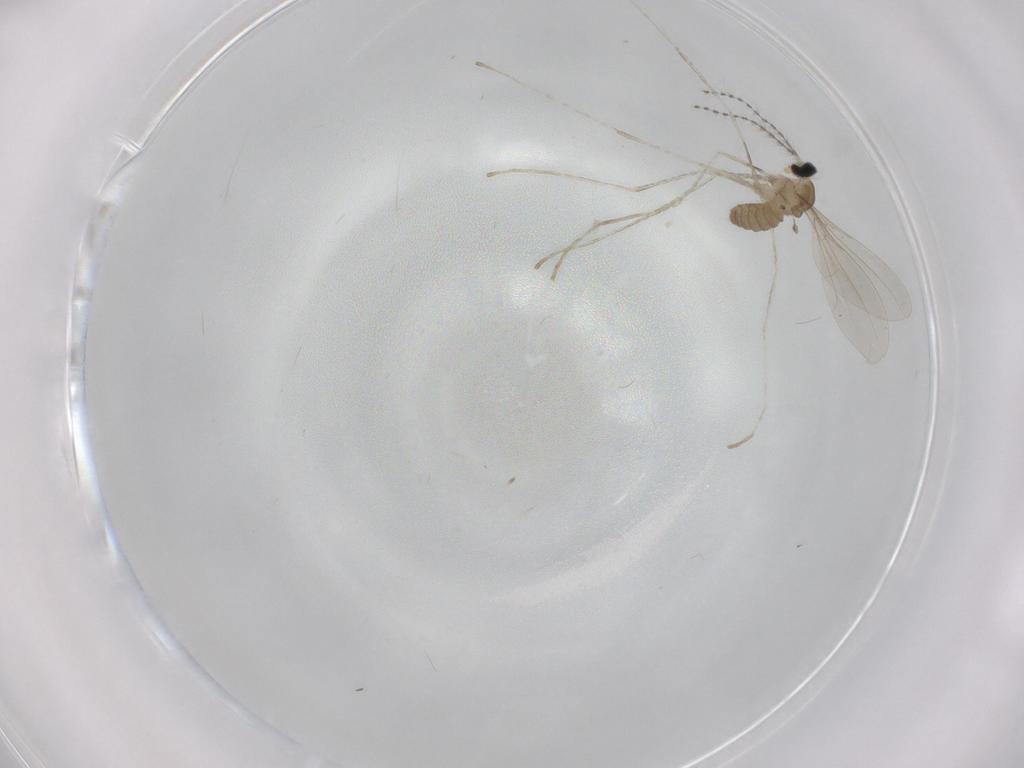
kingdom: Animalia
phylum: Arthropoda
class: Insecta
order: Diptera
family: Cecidomyiidae
